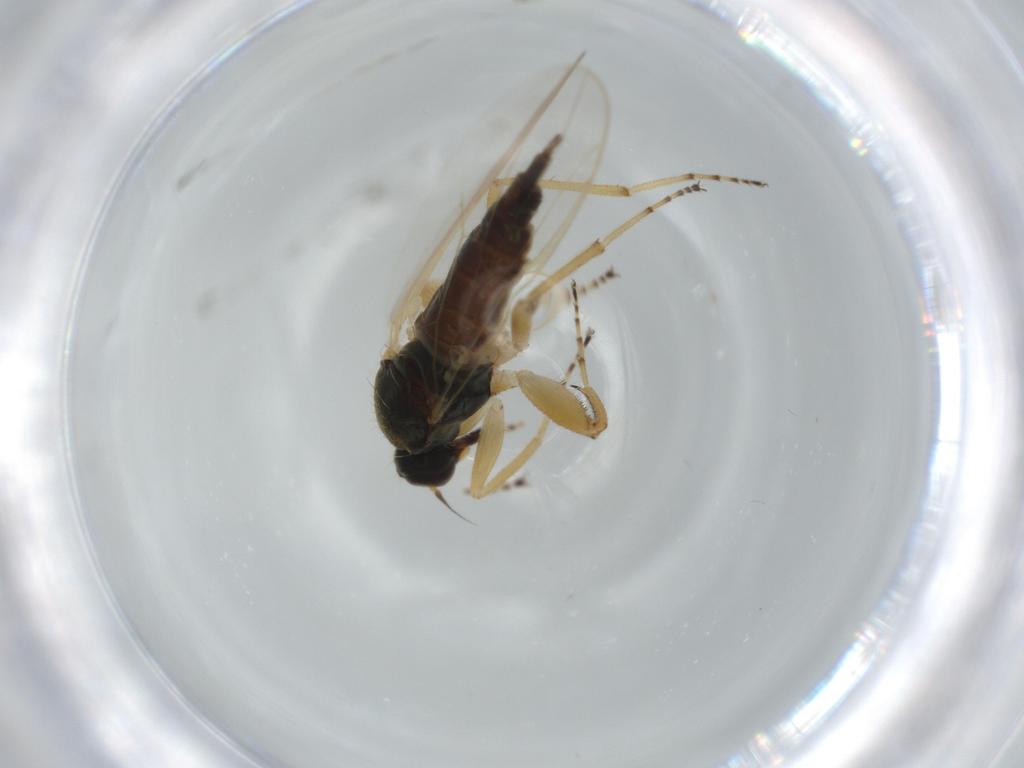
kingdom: Animalia
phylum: Arthropoda
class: Insecta
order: Diptera
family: Hybotidae
